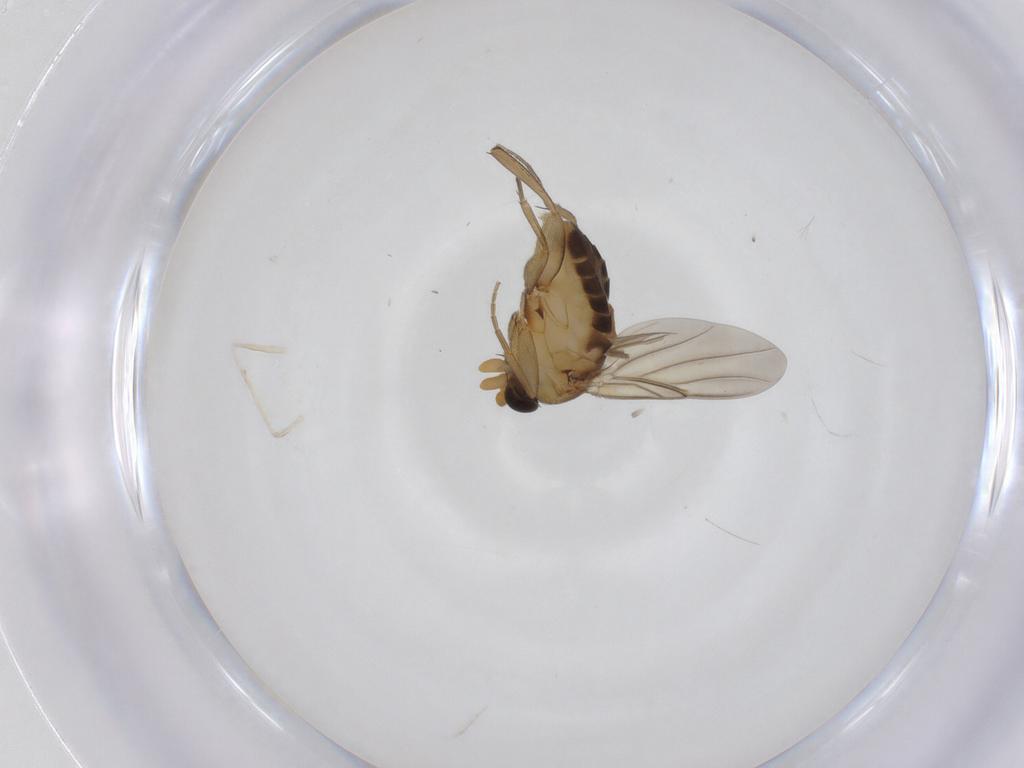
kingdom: Animalia
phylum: Arthropoda
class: Insecta
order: Diptera
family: Phoridae
